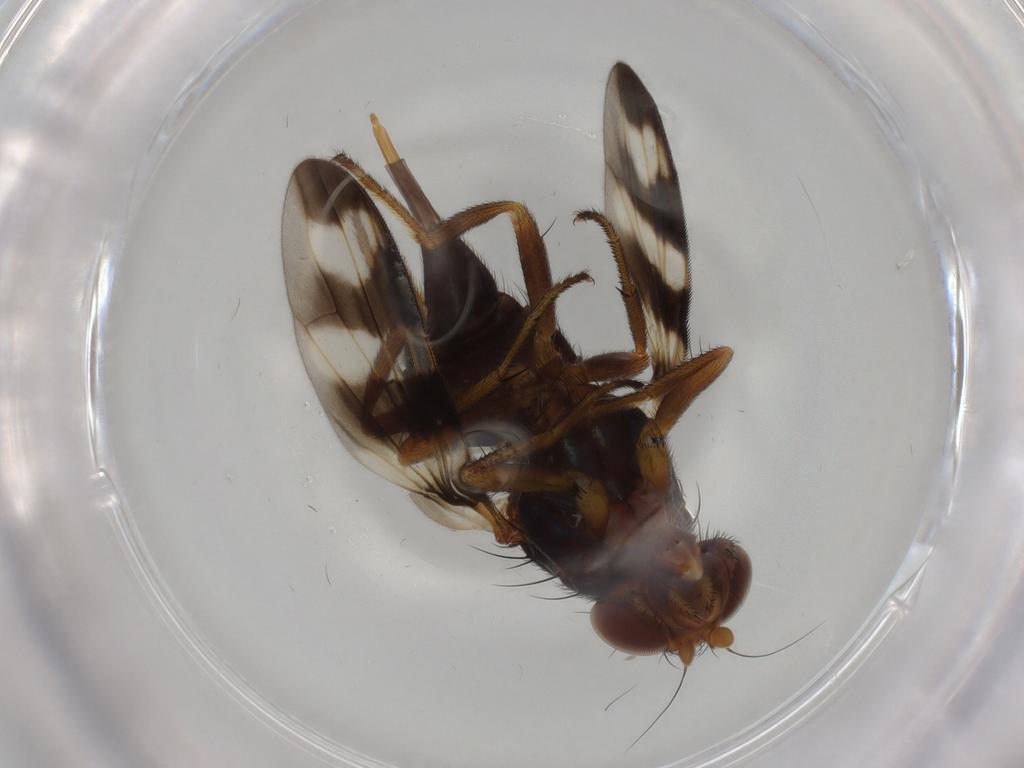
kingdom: Animalia
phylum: Arthropoda
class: Insecta
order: Diptera
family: Ulidiidae
